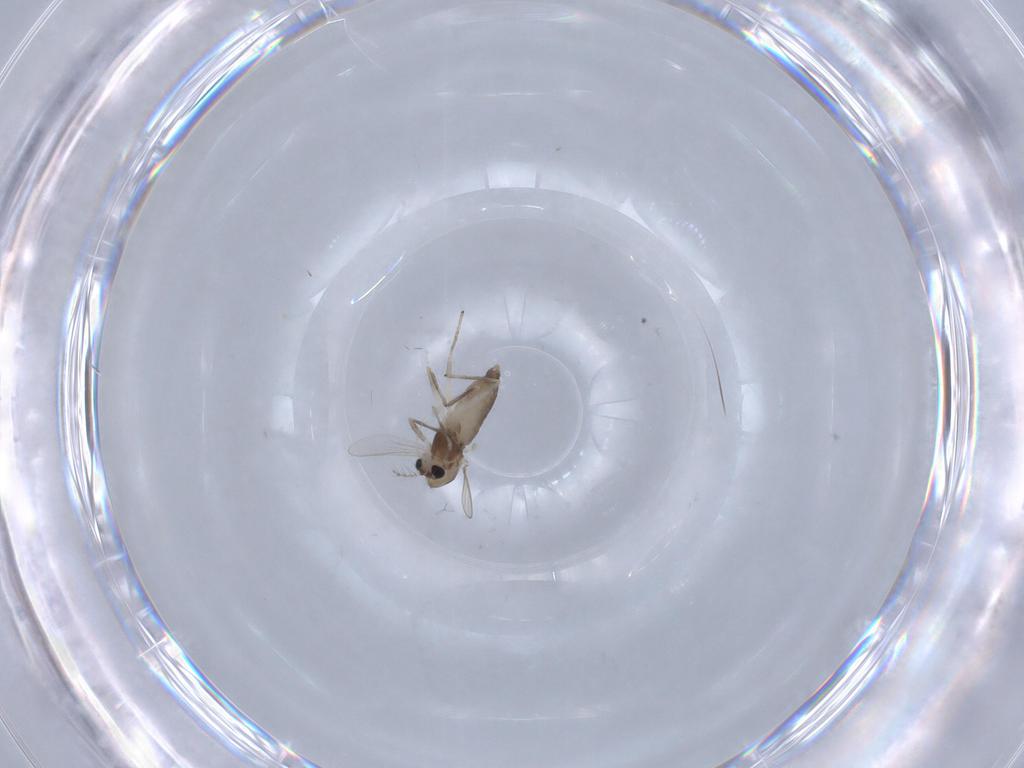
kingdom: Animalia
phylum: Arthropoda
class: Insecta
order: Diptera
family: Chironomidae
